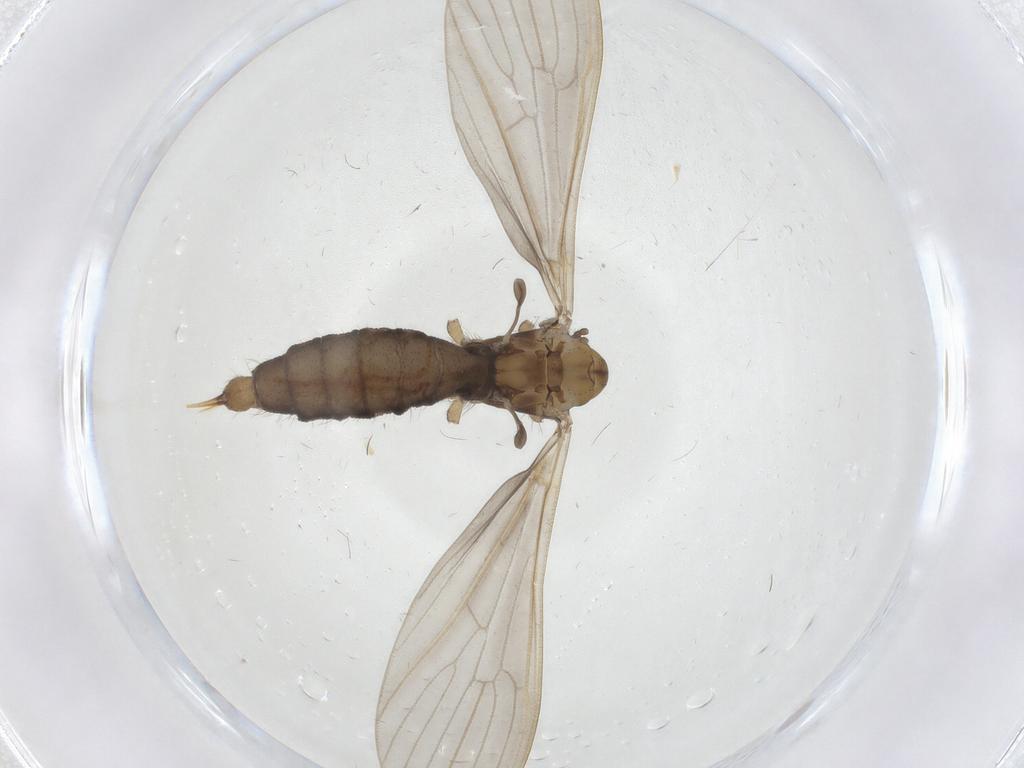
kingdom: Animalia
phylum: Arthropoda
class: Insecta
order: Diptera
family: Limoniidae
